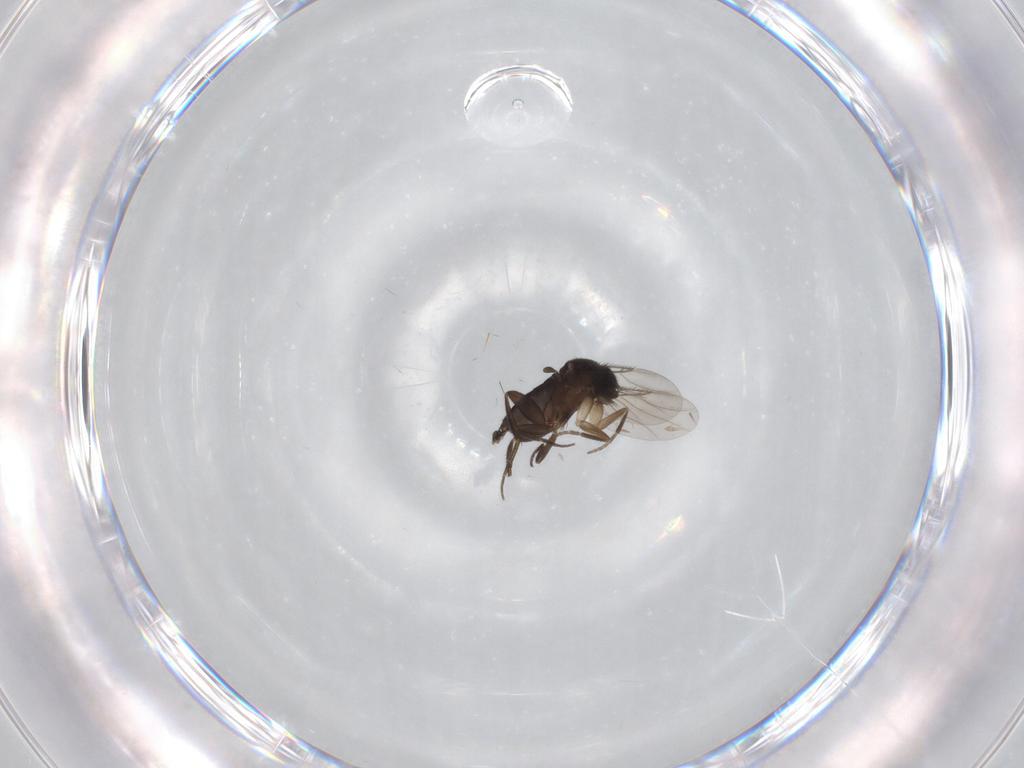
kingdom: Animalia
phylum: Arthropoda
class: Insecta
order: Diptera
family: Phoridae
